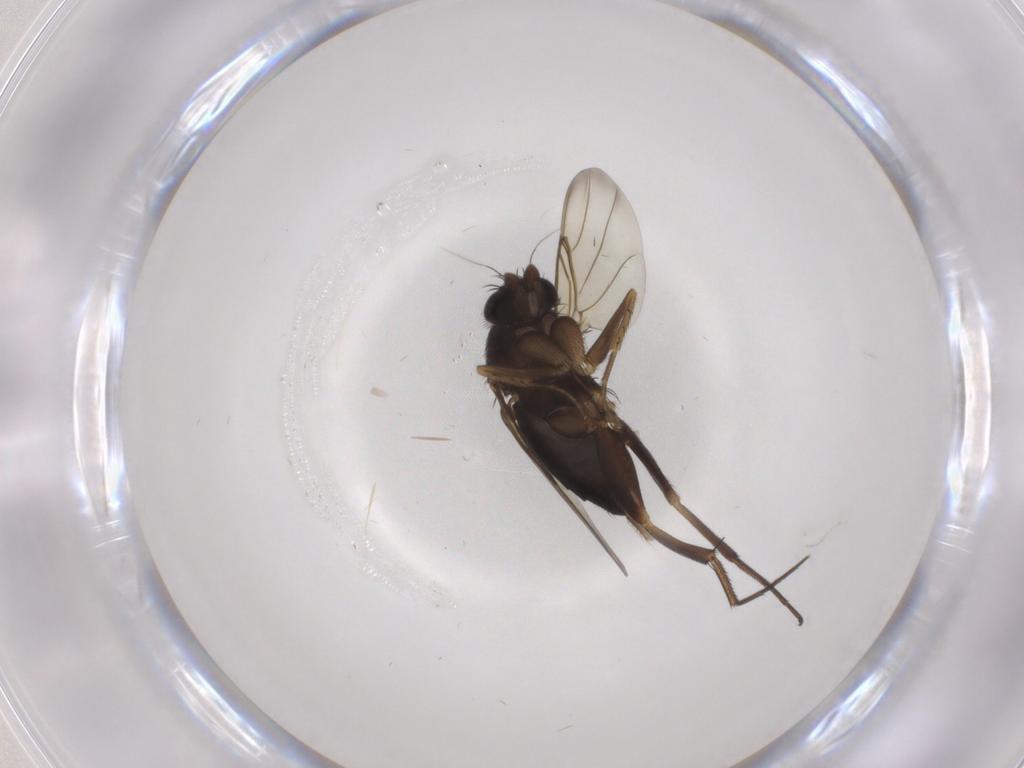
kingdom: Animalia
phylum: Arthropoda
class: Insecta
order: Diptera
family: Phoridae
